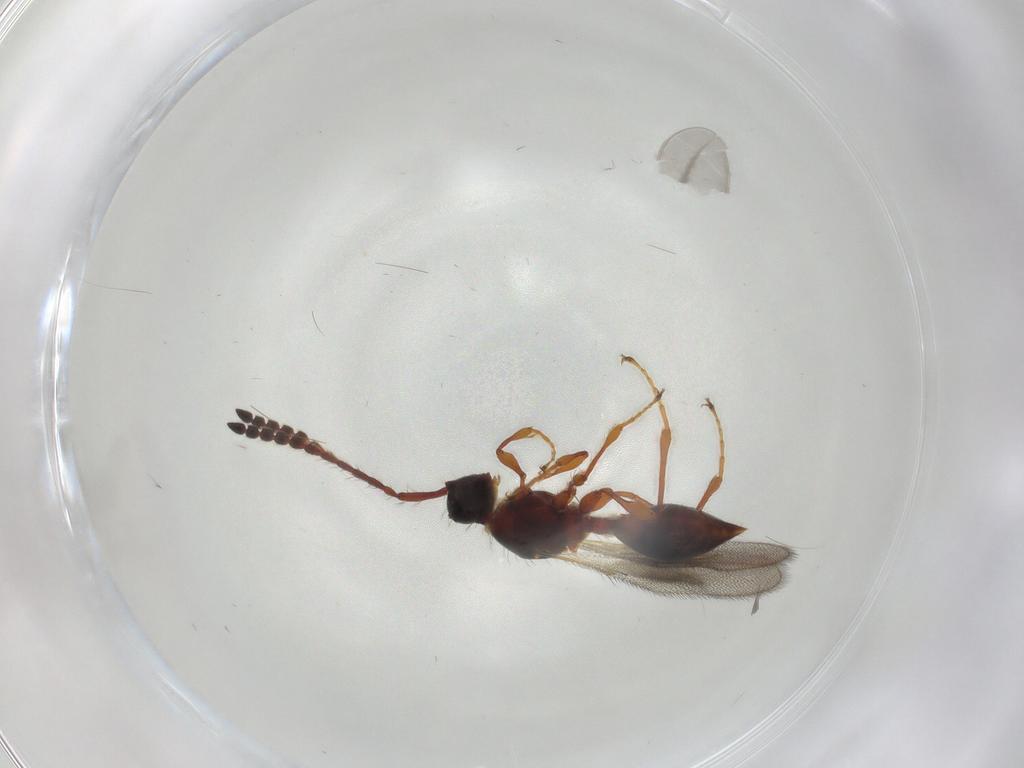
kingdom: Animalia
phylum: Arthropoda
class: Insecta
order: Hymenoptera
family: Diapriidae
